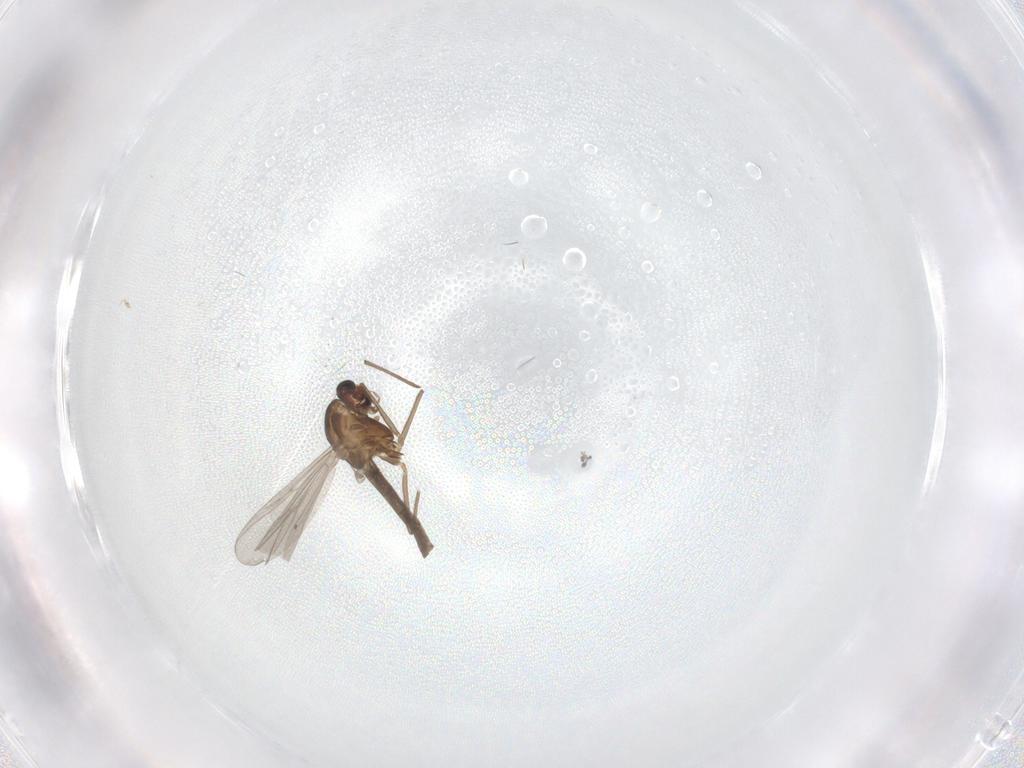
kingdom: Animalia
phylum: Arthropoda
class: Insecta
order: Diptera
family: Chironomidae
